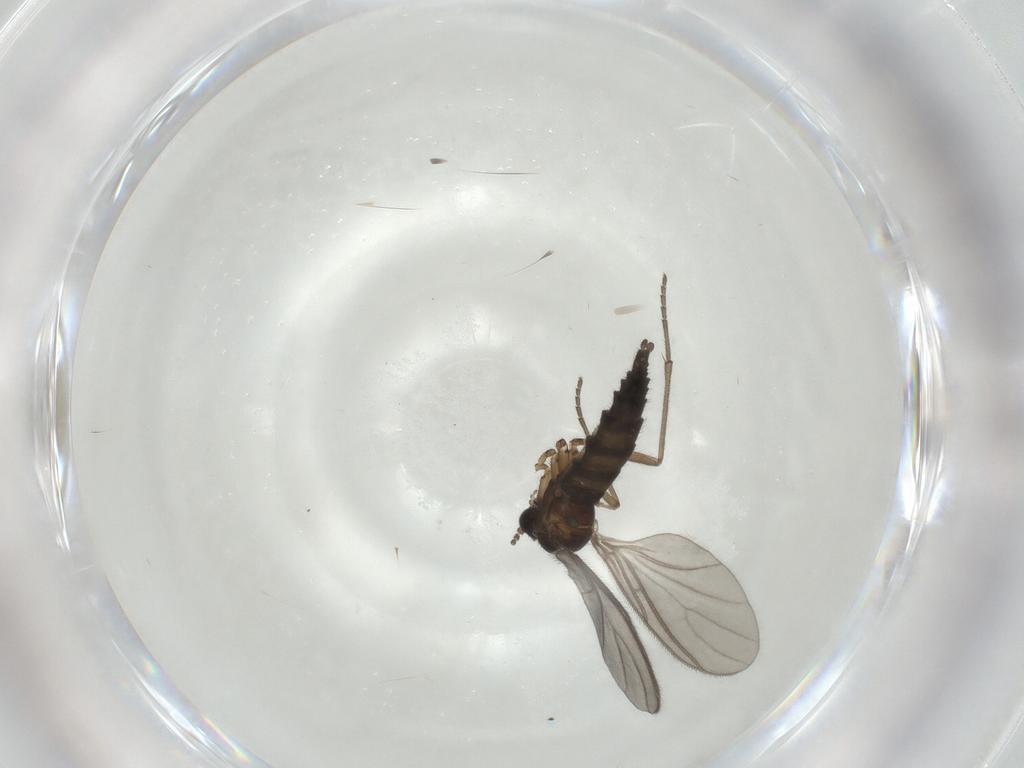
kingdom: Animalia
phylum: Arthropoda
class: Insecta
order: Diptera
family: Sciaridae
